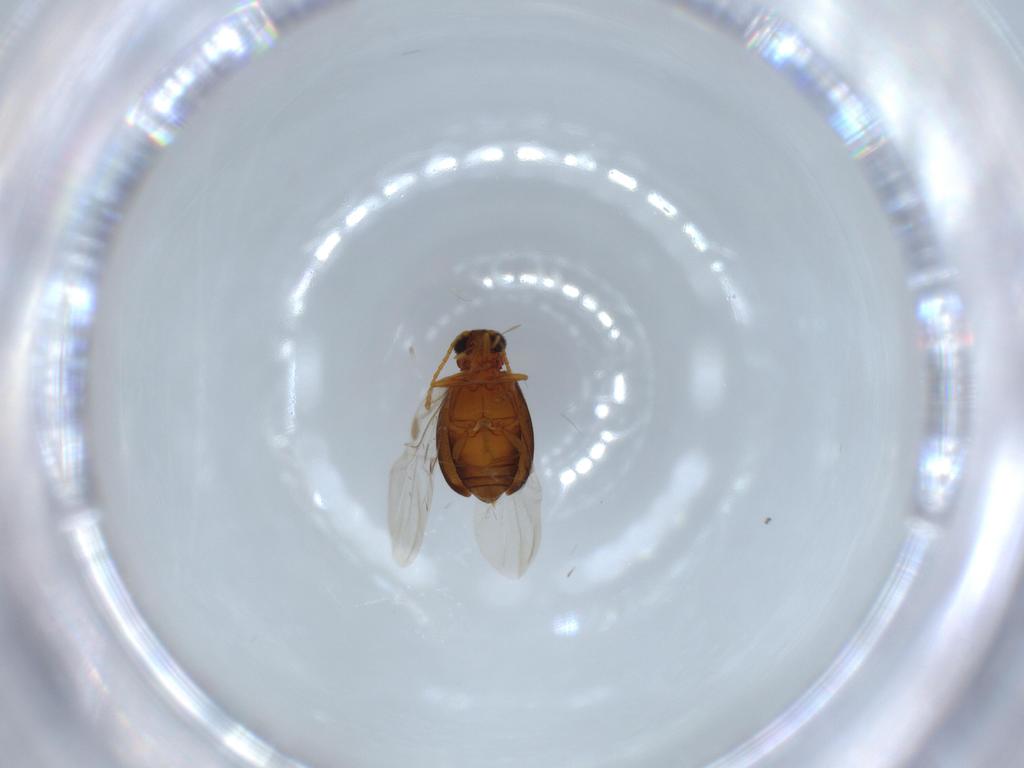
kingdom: Animalia
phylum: Arthropoda
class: Insecta
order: Coleoptera
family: Aderidae
